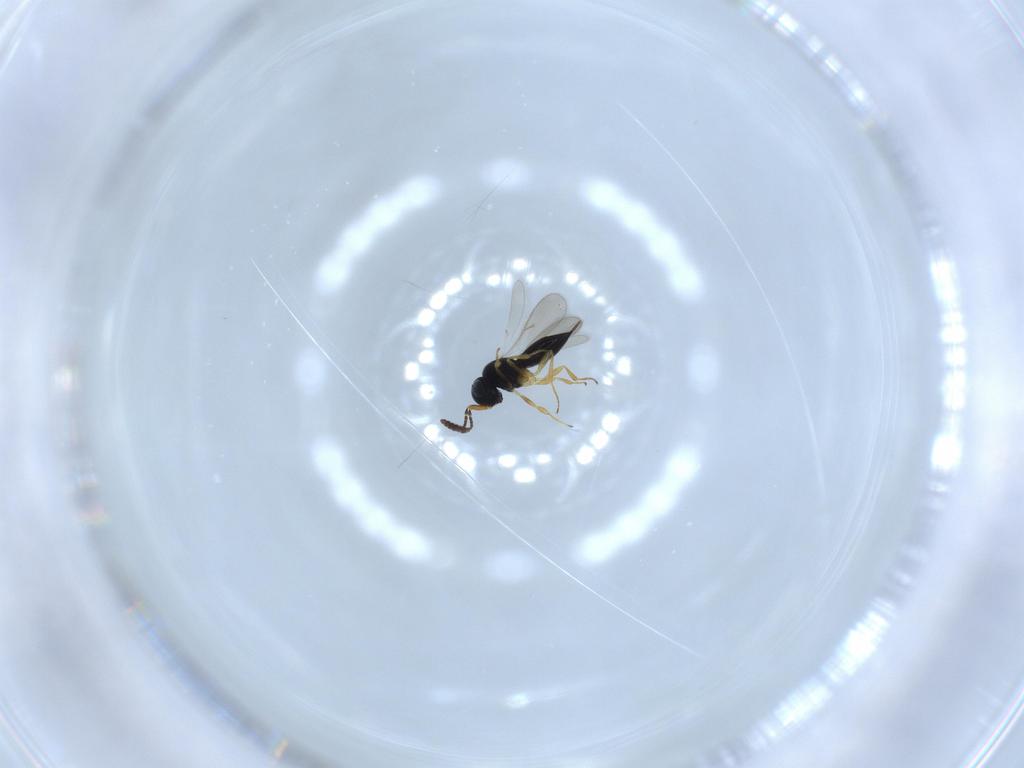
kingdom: Animalia
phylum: Arthropoda
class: Insecta
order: Hymenoptera
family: Scelionidae
